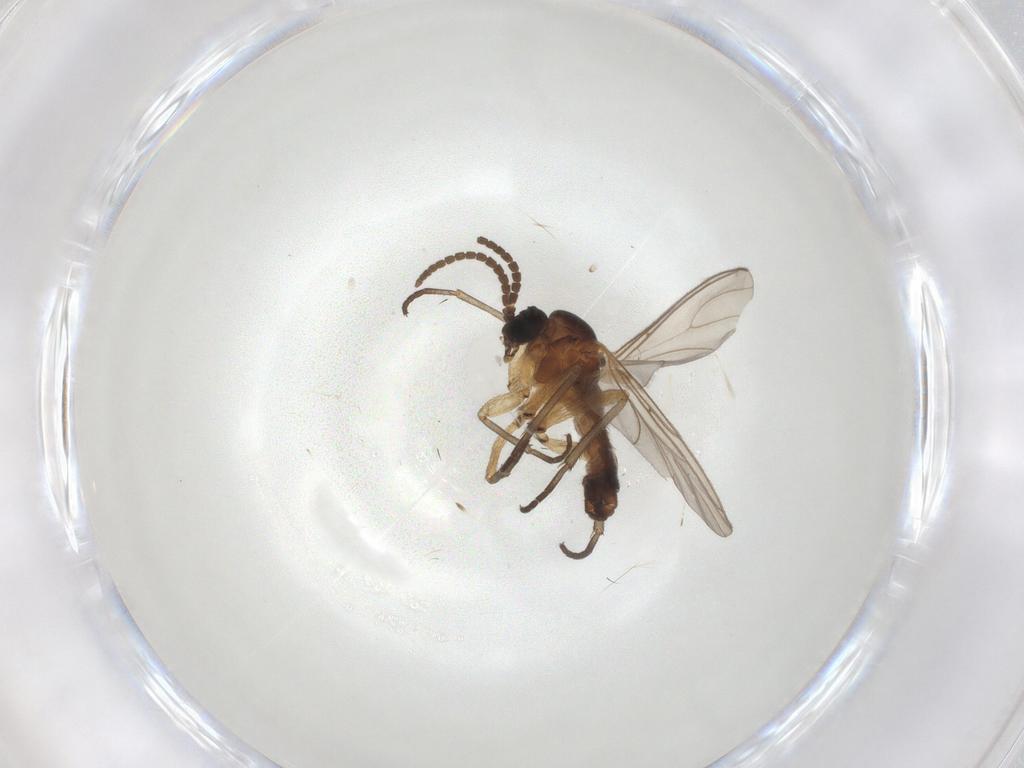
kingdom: Animalia
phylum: Arthropoda
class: Insecta
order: Diptera
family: Sciaridae
